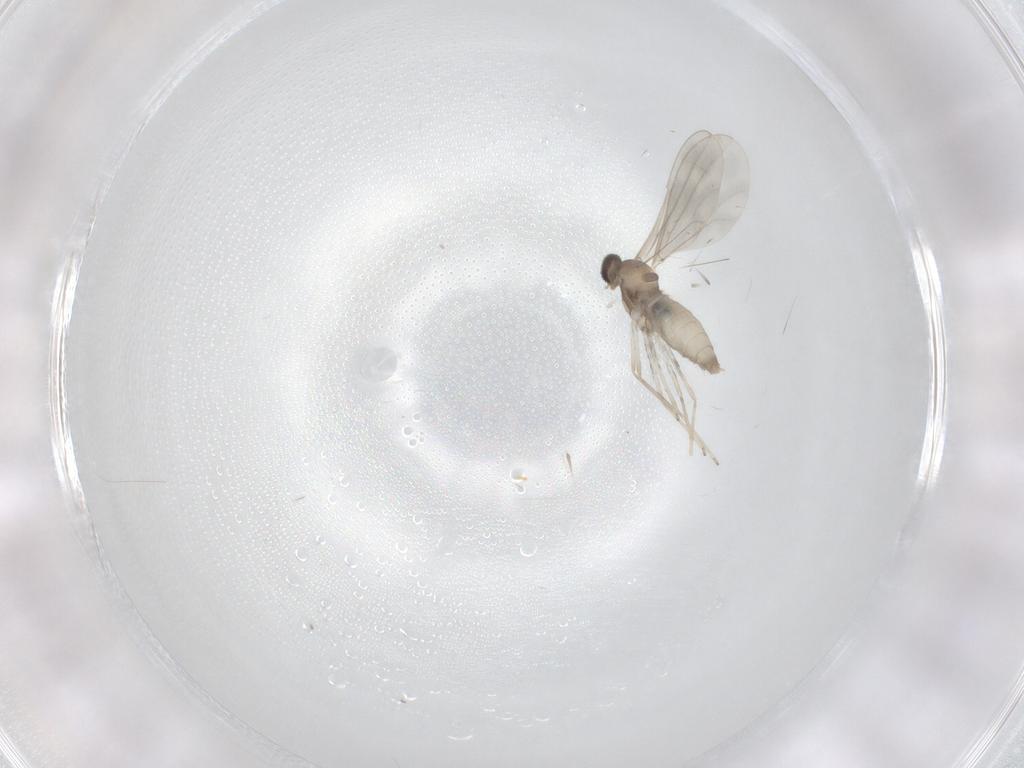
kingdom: Animalia
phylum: Arthropoda
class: Insecta
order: Diptera
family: Cecidomyiidae
